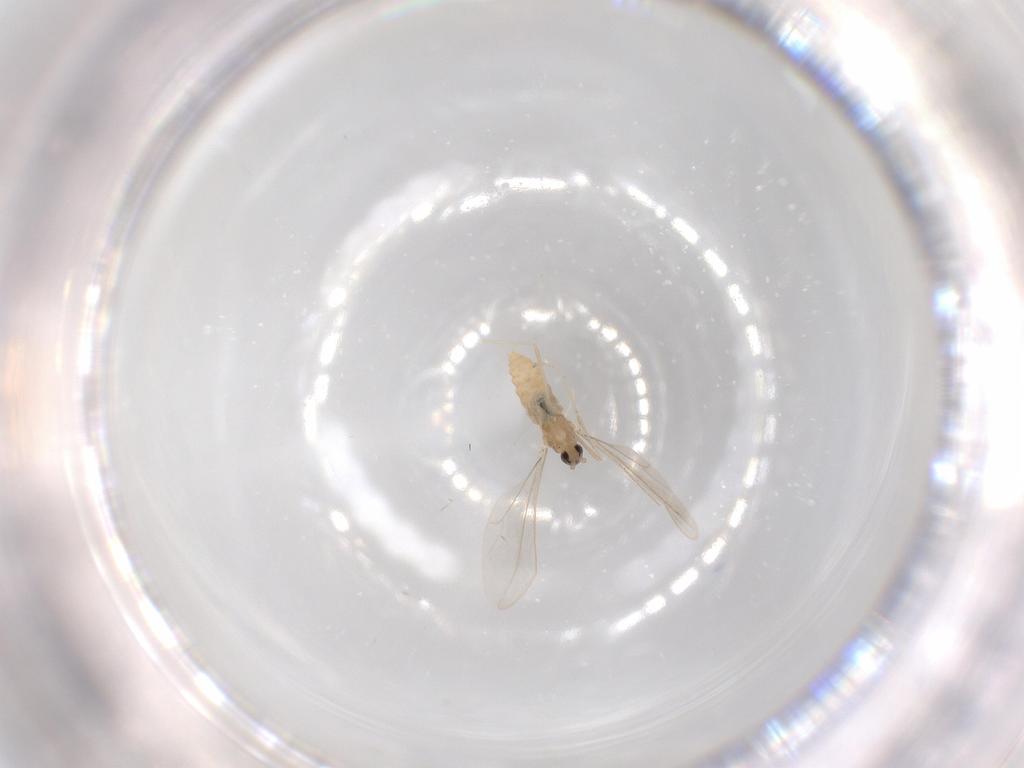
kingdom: Animalia
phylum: Arthropoda
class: Insecta
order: Diptera
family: Cecidomyiidae
